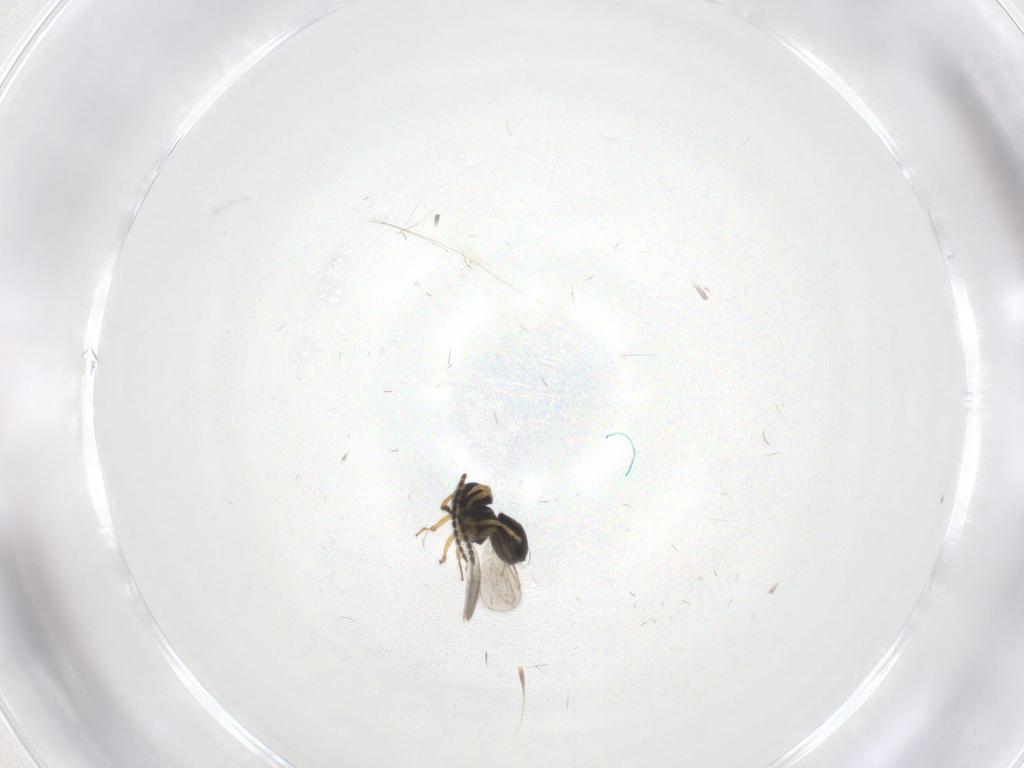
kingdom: Animalia
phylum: Arthropoda
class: Insecta
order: Hymenoptera
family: Scelionidae
